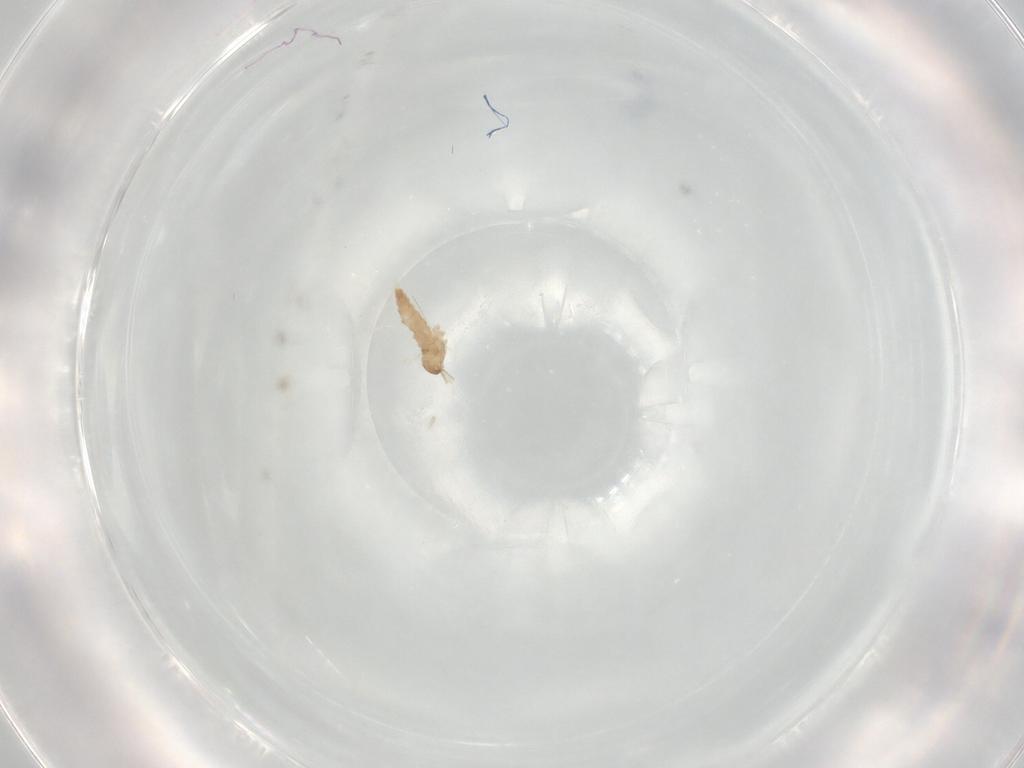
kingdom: Animalia
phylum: Arthropoda
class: Insecta
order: Diptera
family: Cecidomyiidae
